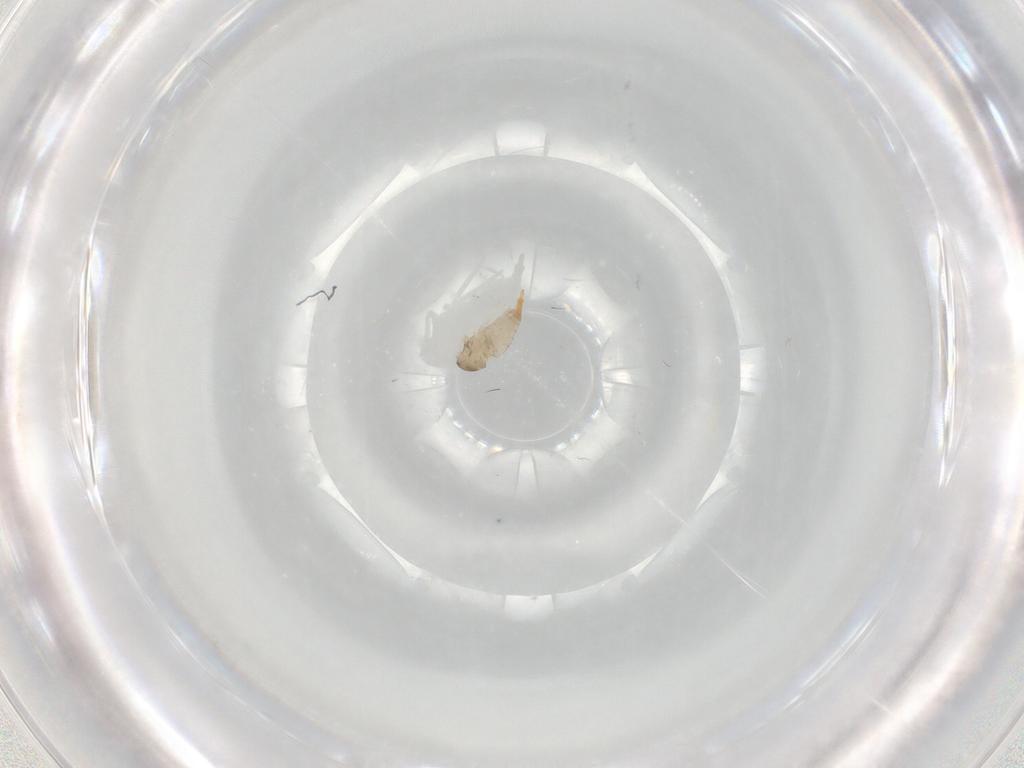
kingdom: Animalia
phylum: Arthropoda
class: Insecta
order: Diptera
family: Cecidomyiidae
